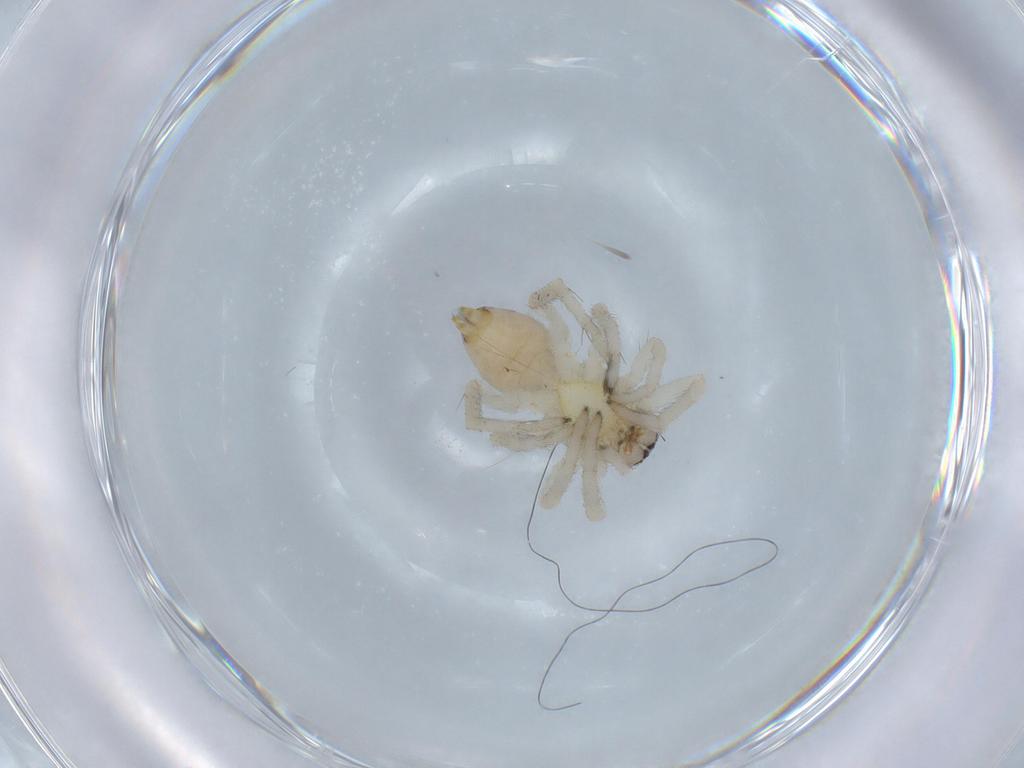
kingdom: Animalia
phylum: Arthropoda
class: Arachnida
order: Araneae
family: Clubionidae
